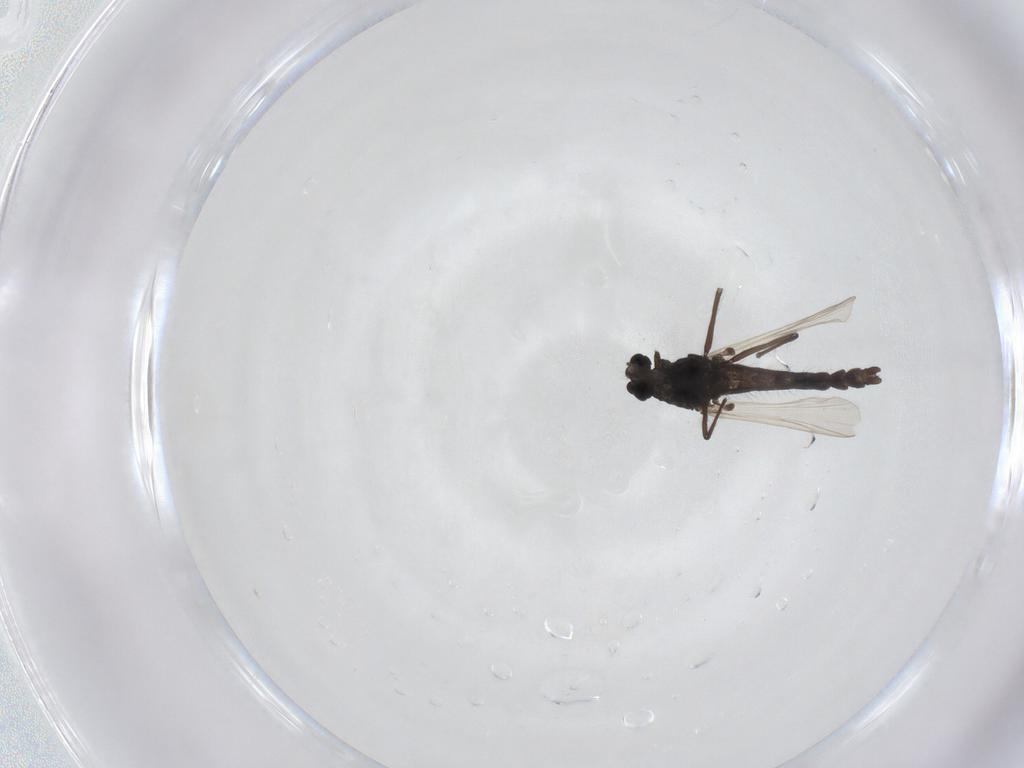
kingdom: Animalia
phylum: Arthropoda
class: Insecta
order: Diptera
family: Chironomidae
